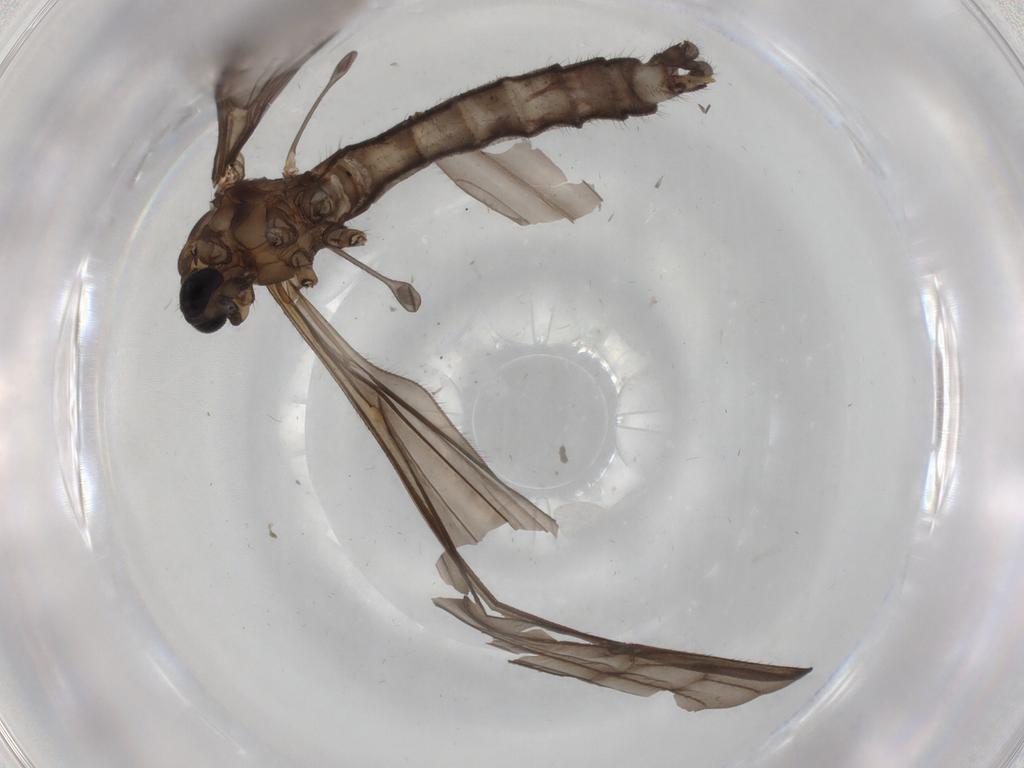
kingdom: Animalia
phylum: Arthropoda
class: Insecta
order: Diptera
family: Limoniidae
